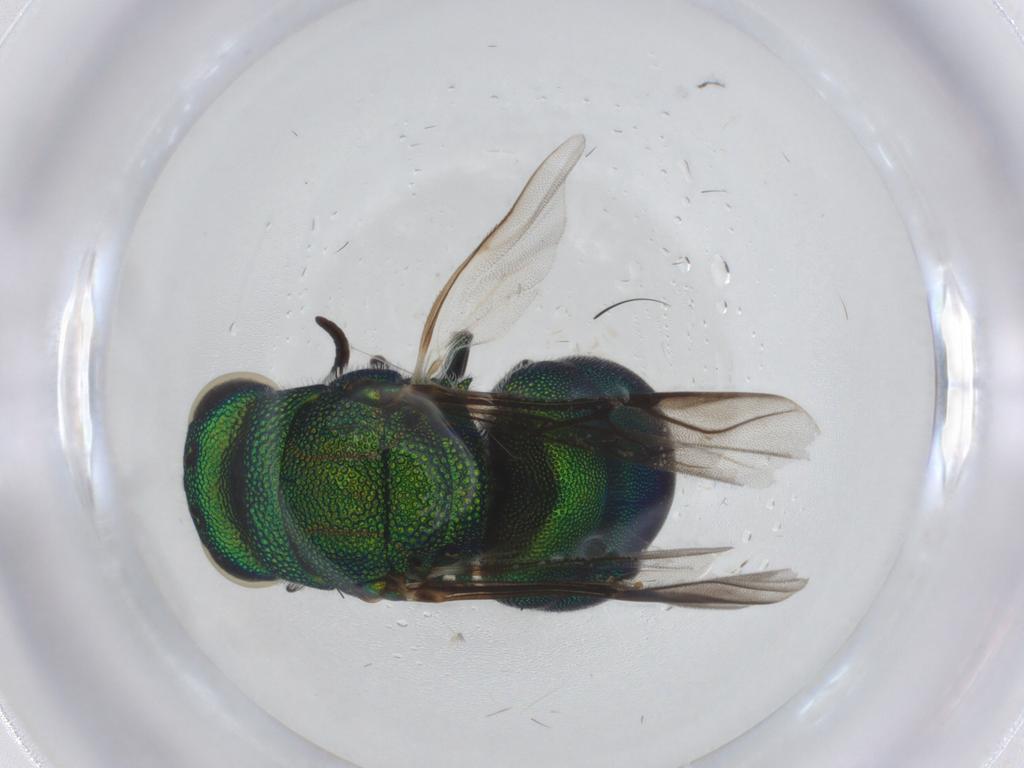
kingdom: Animalia
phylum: Arthropoda
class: Insecta
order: Hymenoptera
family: Chrysididae
